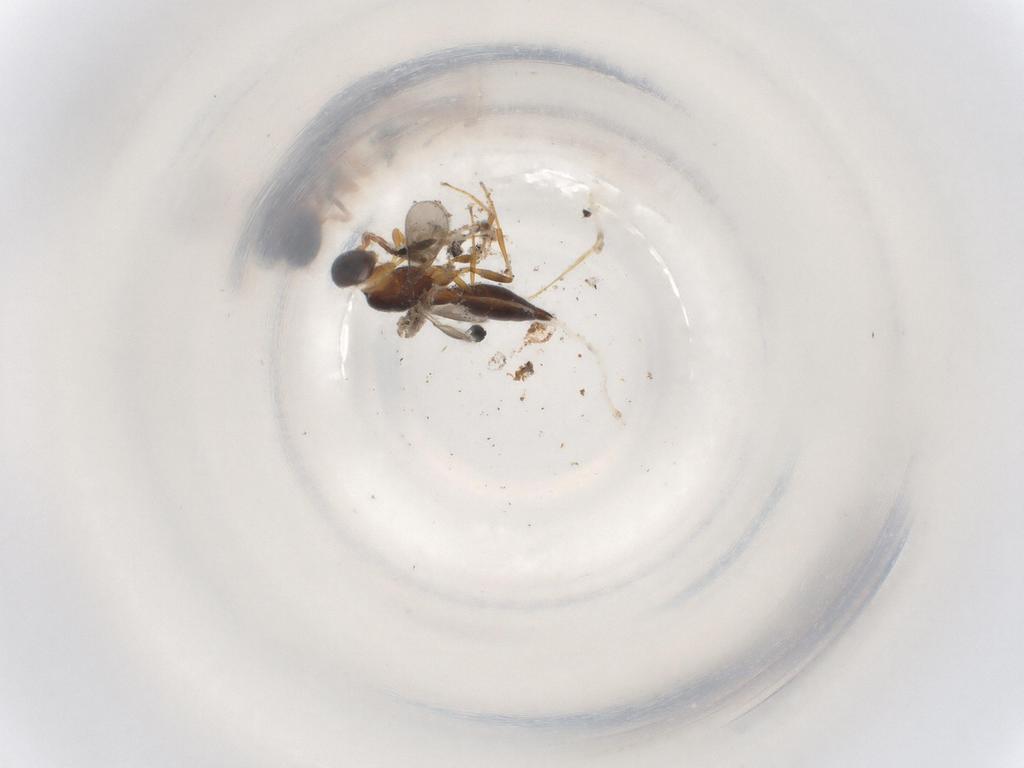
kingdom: Animalia
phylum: Arthropoda
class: Insecta
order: Hymenoptera
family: Scelionidae
